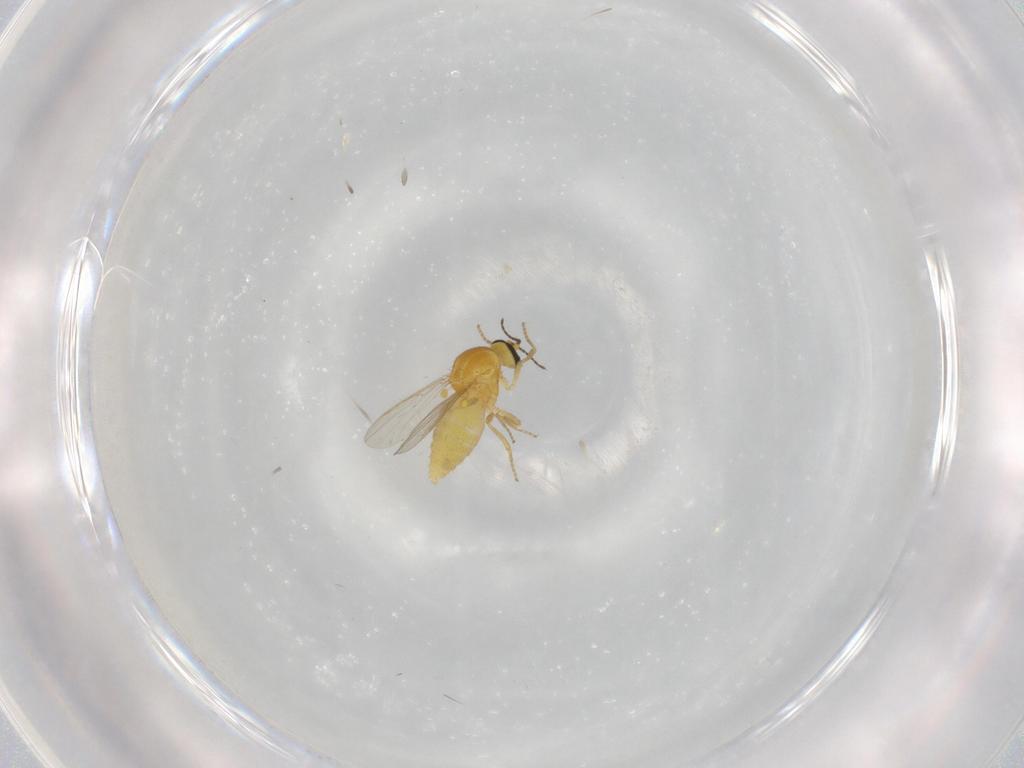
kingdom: Animalia
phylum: Arthropoda
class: Insecta
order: Diptera
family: Ceratopogonidae
